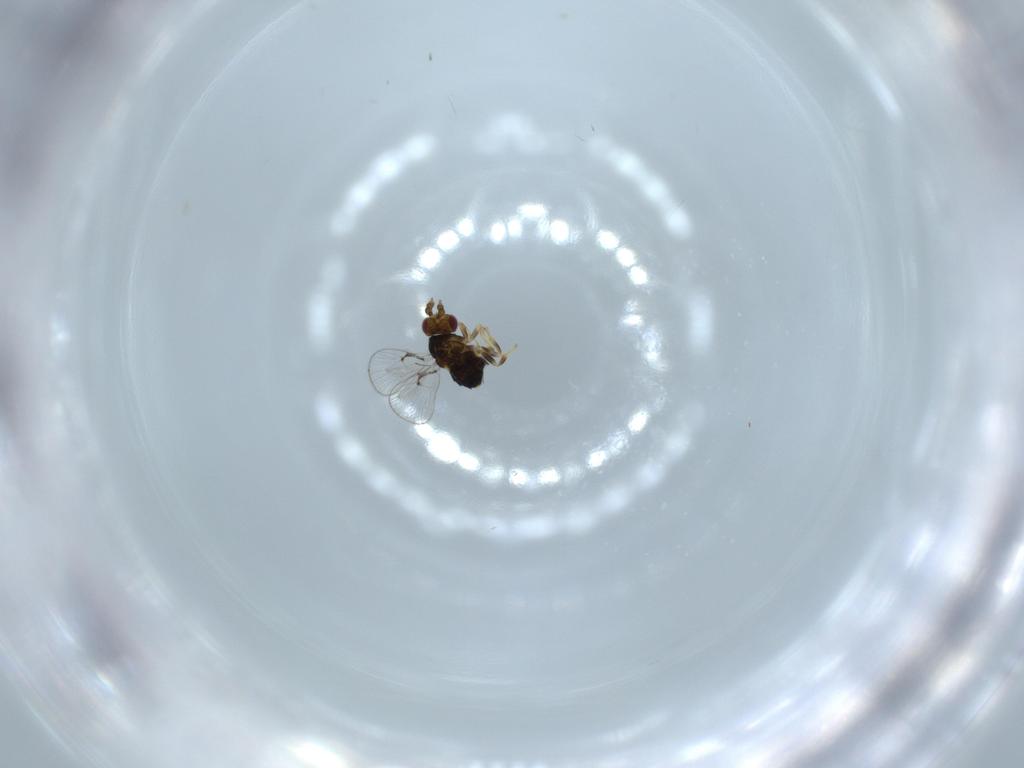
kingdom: Animalia
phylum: Arthropoda
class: Insecta
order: Hymenoptera
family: Trichogrammatidae
